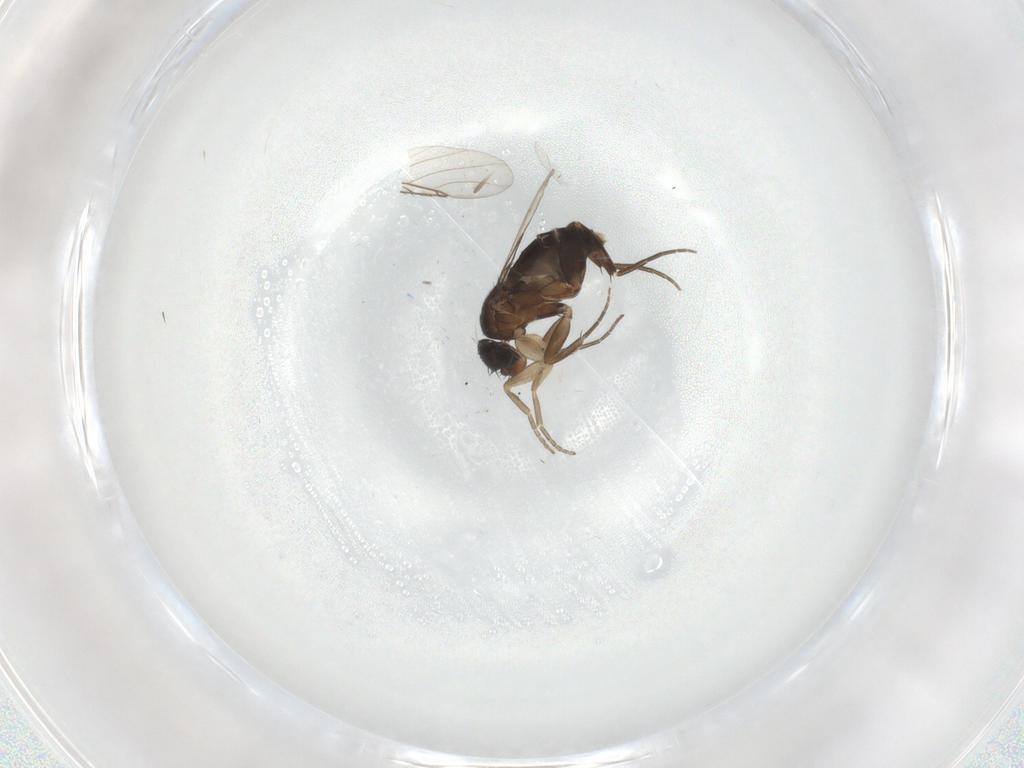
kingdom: Animalia
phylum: Arthropoda
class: Insecta
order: Diptera
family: Phoridae
